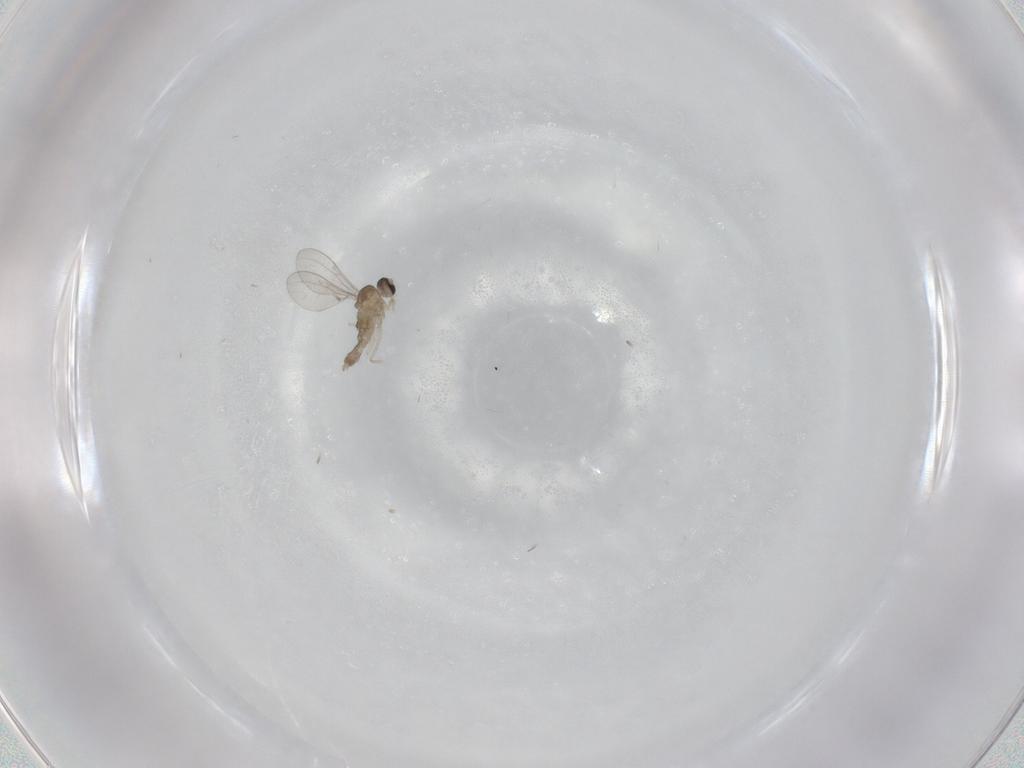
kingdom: Animalia
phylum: Arthropoda
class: Insecta
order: Diptera
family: Cecidomyiidae
